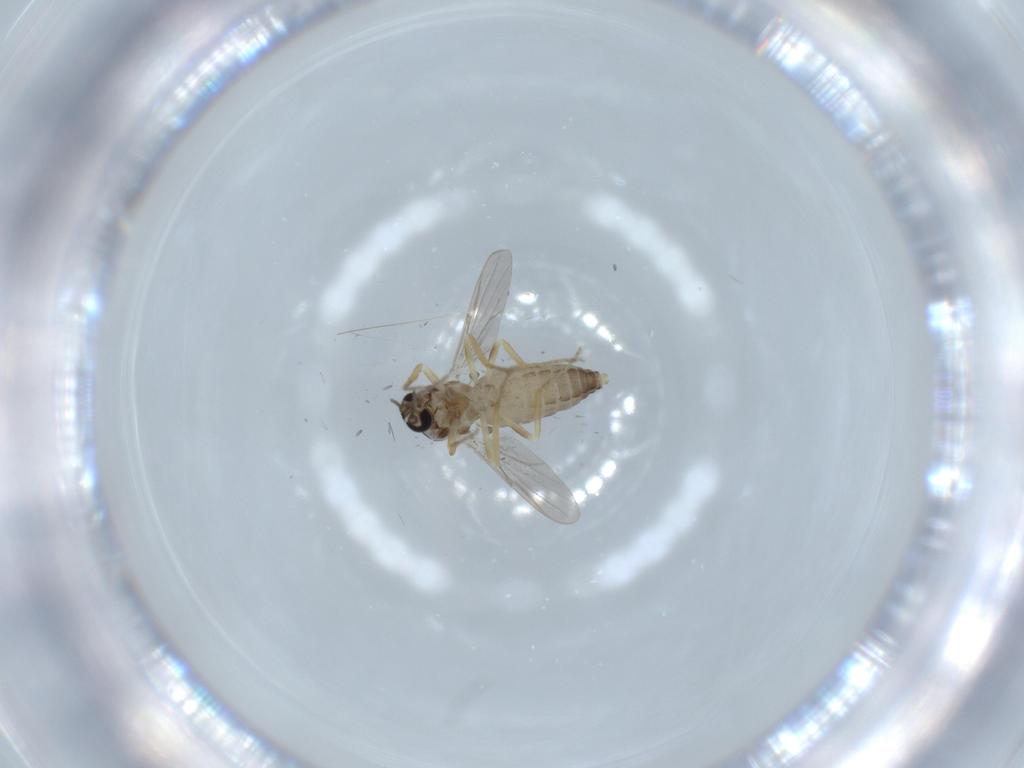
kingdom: Animalia
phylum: Arthropoda
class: Insecta
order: Diptera
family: Ceratopogonidae
